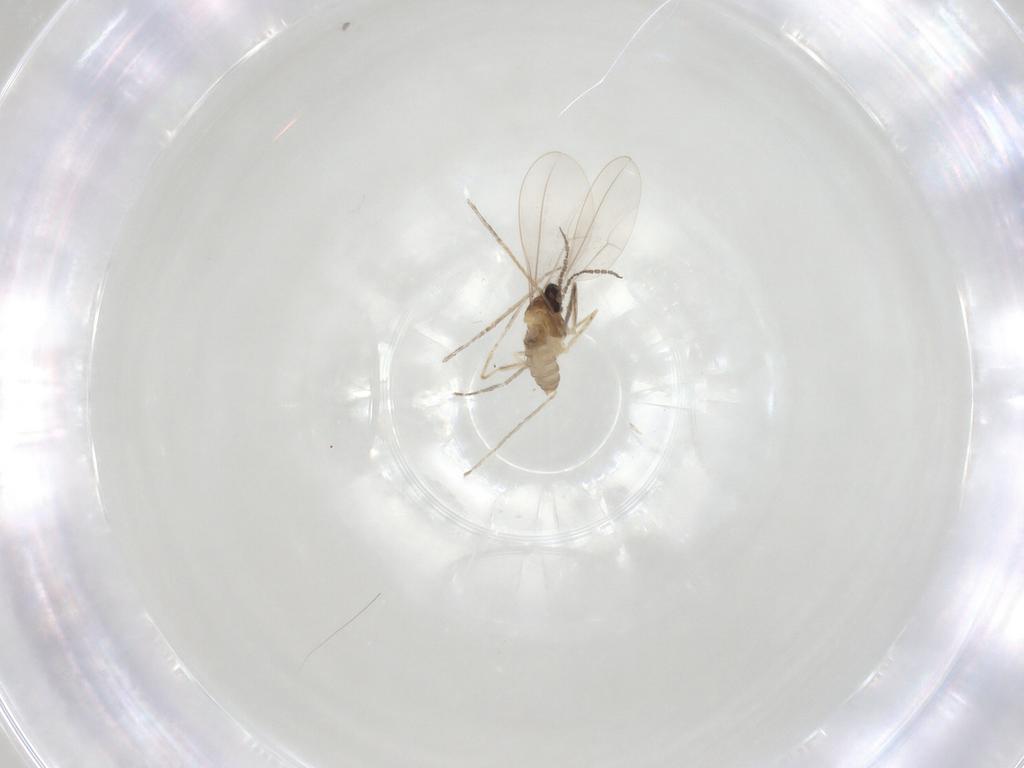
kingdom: Animalia
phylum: Arthropoda
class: Insecta
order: Diptera
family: Cecidomyiidae
